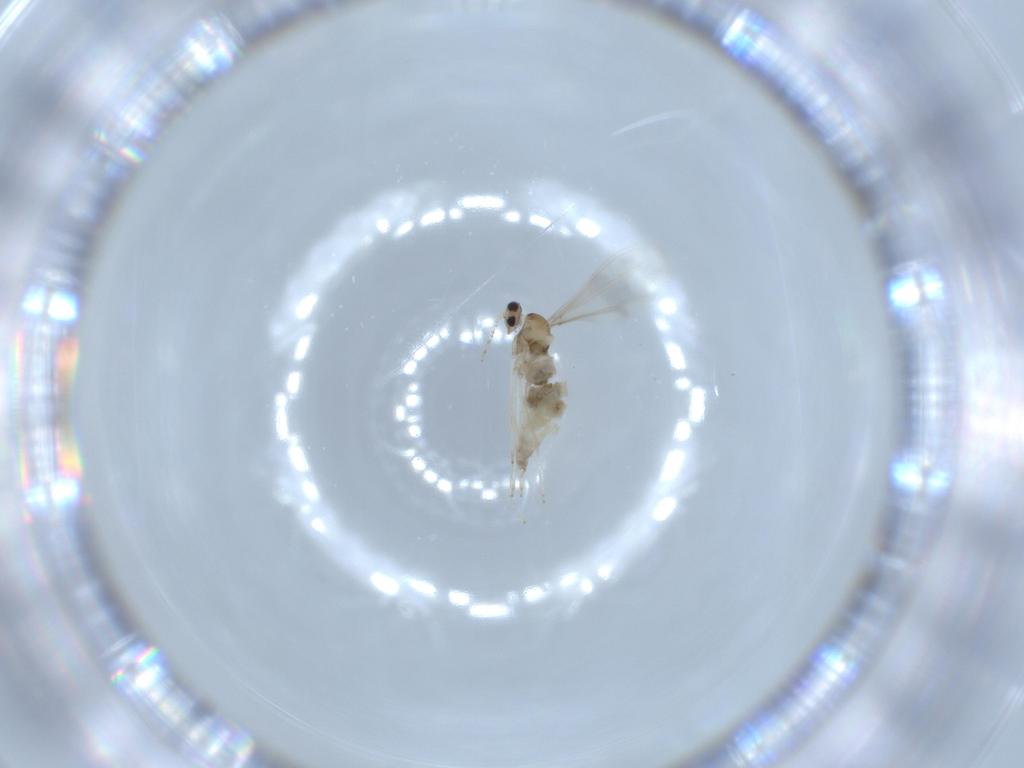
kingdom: Animalia
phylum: Arthropoda
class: Insecta
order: Diptera
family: Cecidomyiidae
